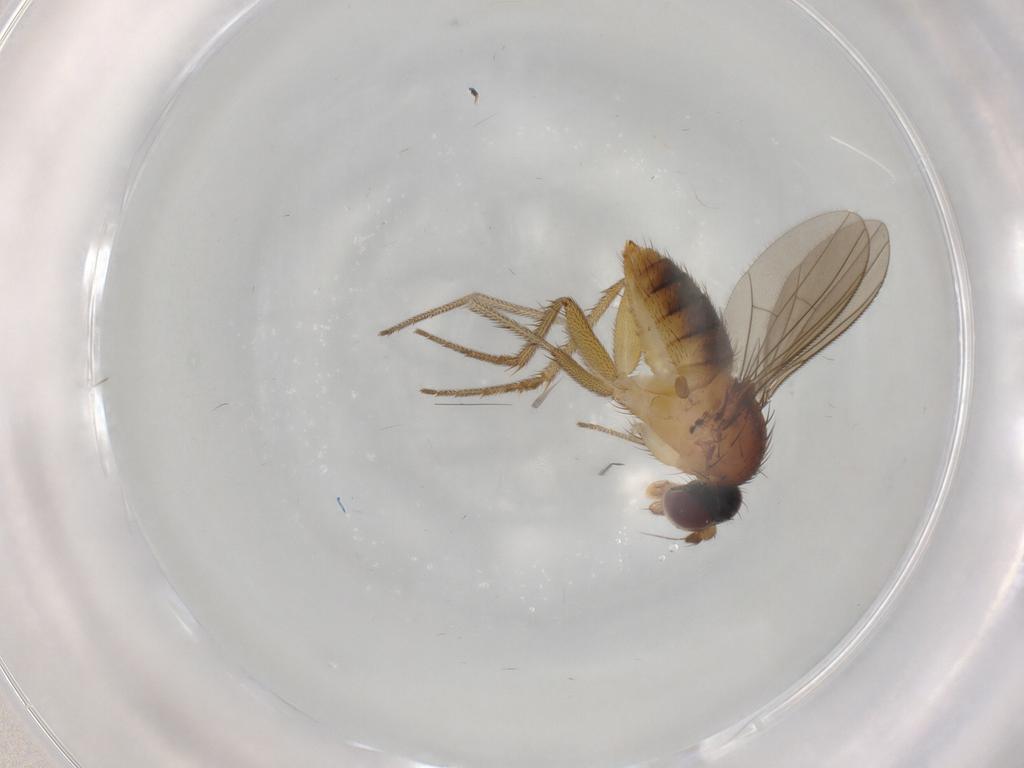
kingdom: Animalia
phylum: Arthropoda
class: Insecta
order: Diptera
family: Dolichopodidae
